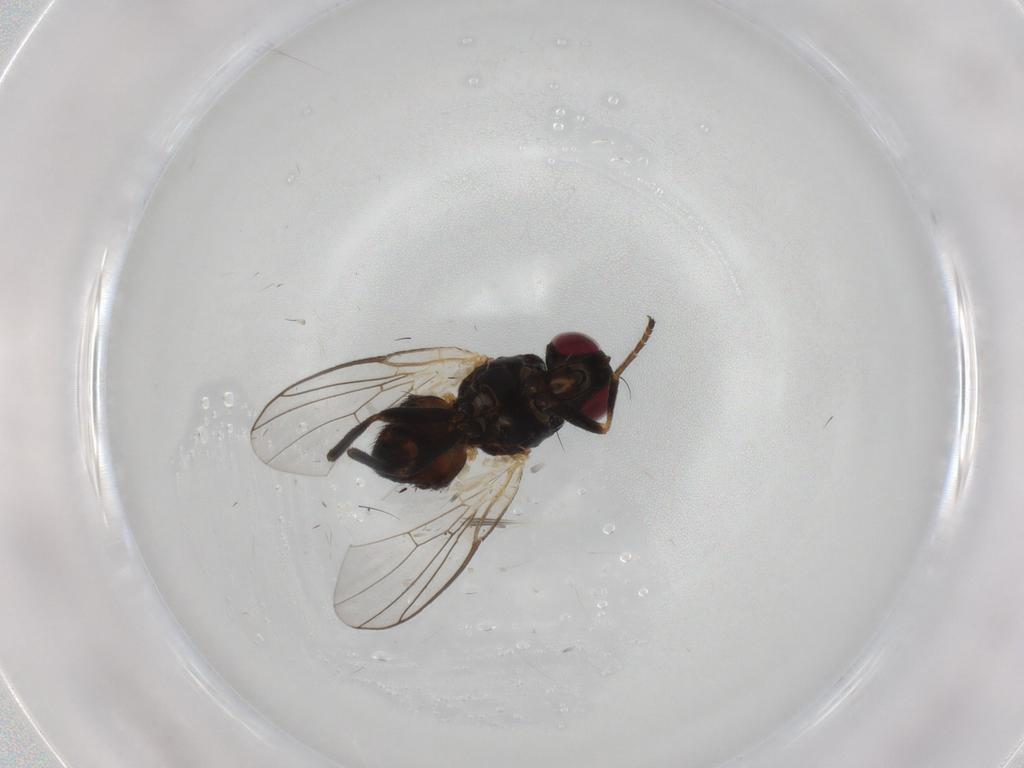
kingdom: Animalia
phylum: Arthropoda
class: Insecta
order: Diptera
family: Agromyzidae
